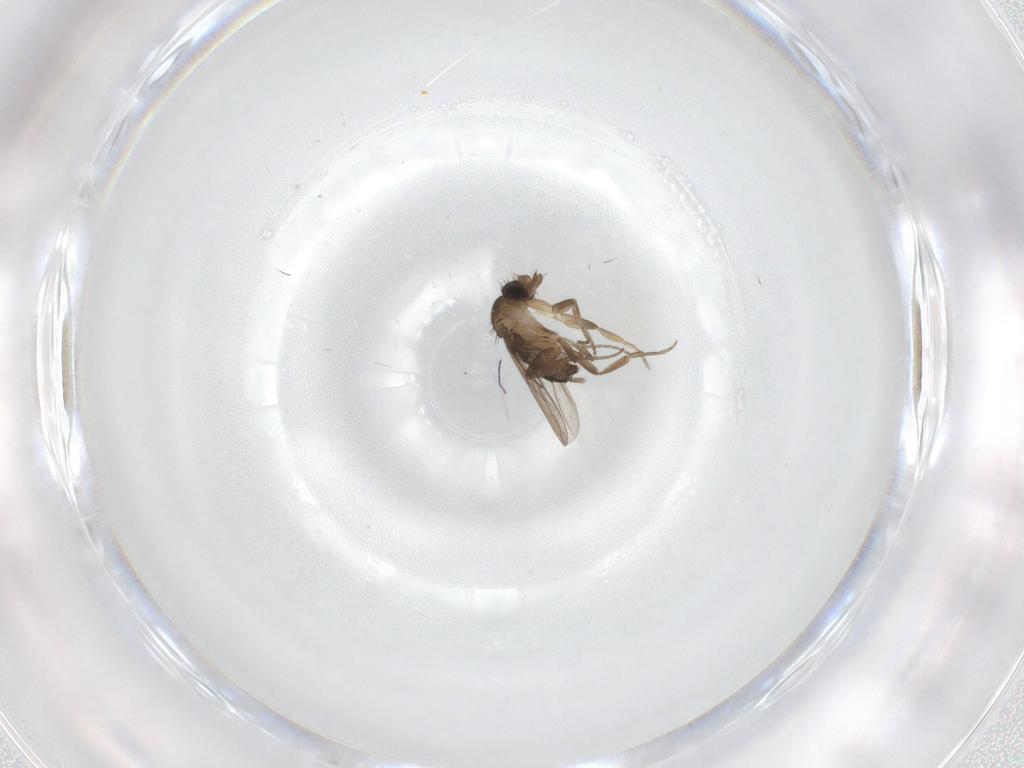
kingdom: Animalia
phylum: Arthropoda
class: Insecta
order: Diptera
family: Phoridae
